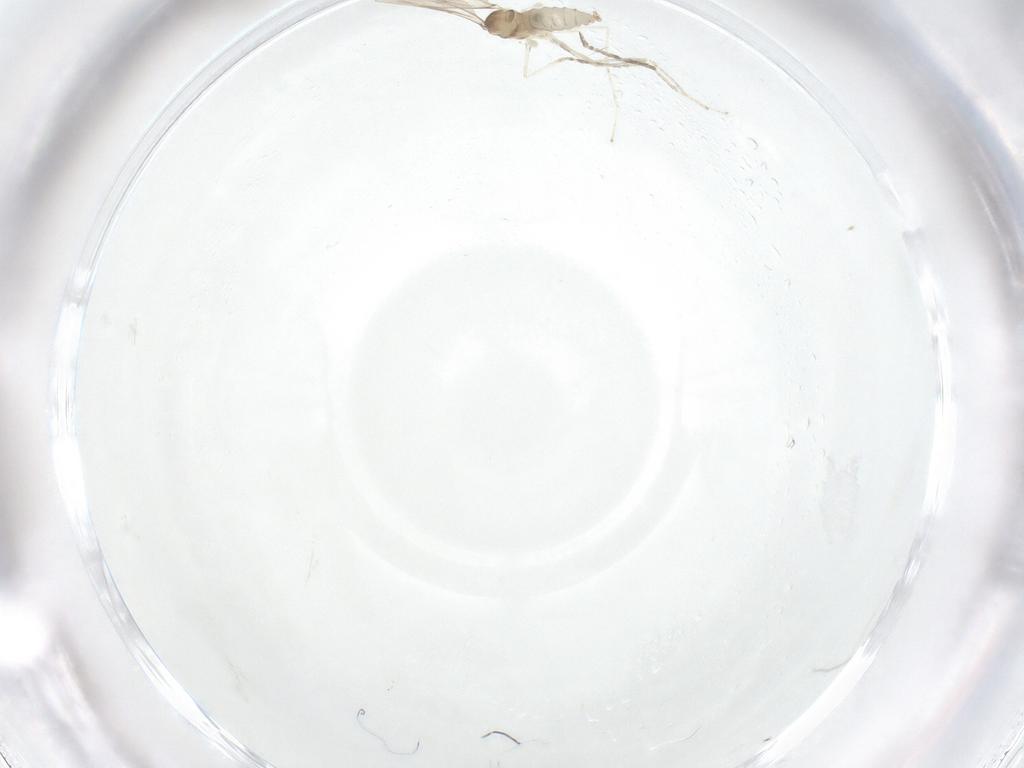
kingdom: Animalia
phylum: Arthropoda
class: Insecta
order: Diptera
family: Cecidomyiidae
